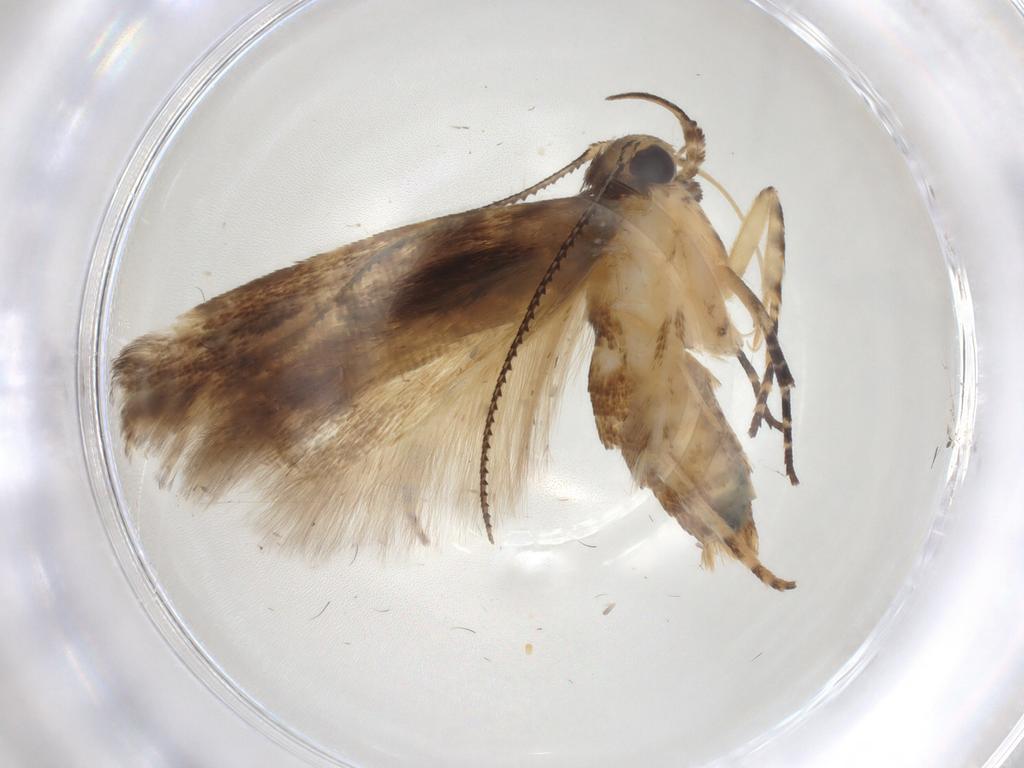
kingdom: Animalia
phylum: Arthropoda
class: Insecta
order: Lepidoptera
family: Gelechiidae
